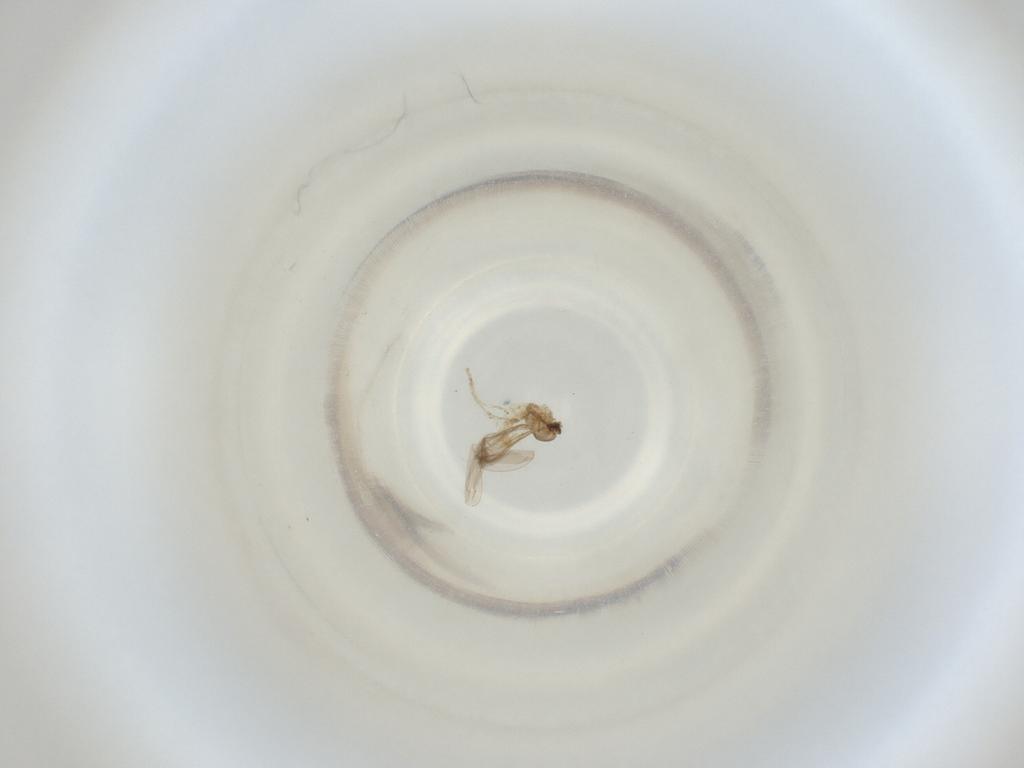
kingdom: Animalia
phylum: Arthropoda
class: Insecta
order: Diptera
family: Cecidomyiidae
